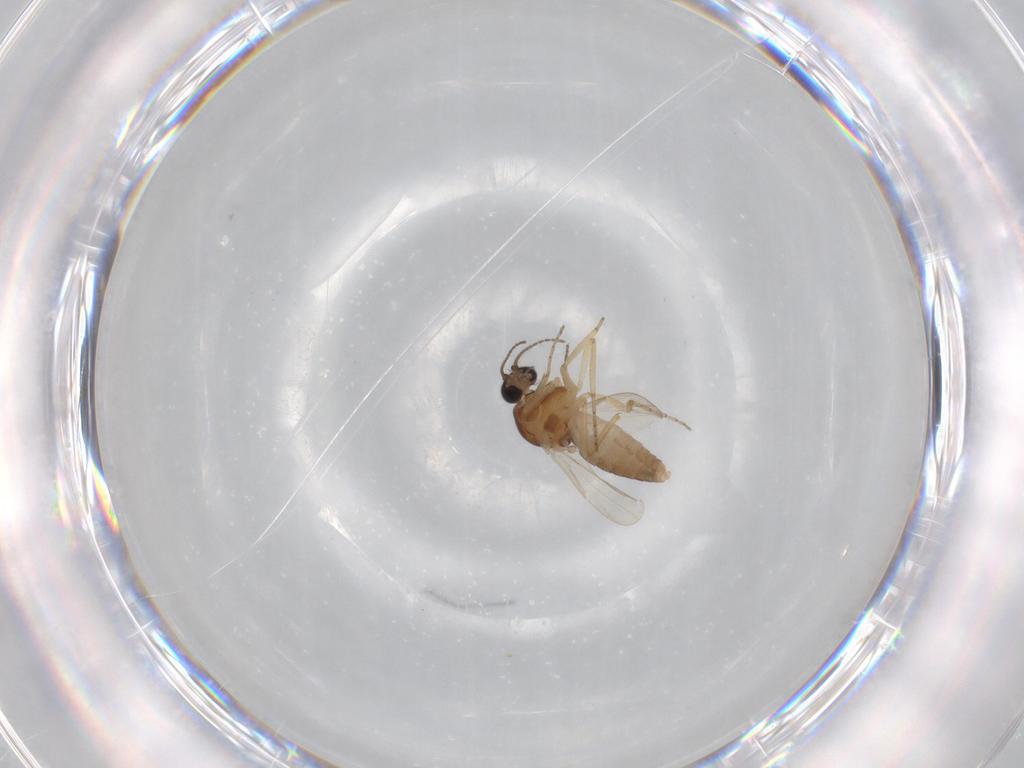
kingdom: Animalia
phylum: Arthropoda
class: Insecta
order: Diptera
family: Ceratopogonidae
